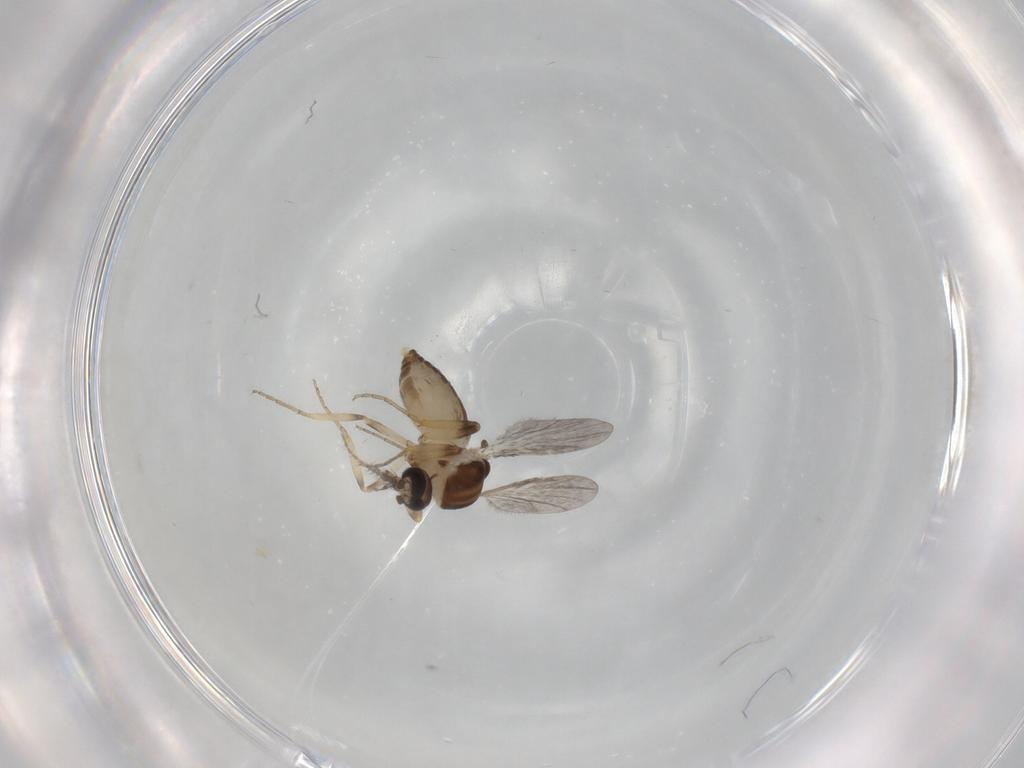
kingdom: Animalia
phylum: Arthropoda
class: Insecta
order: Diptera
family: Ceratopogonidae
